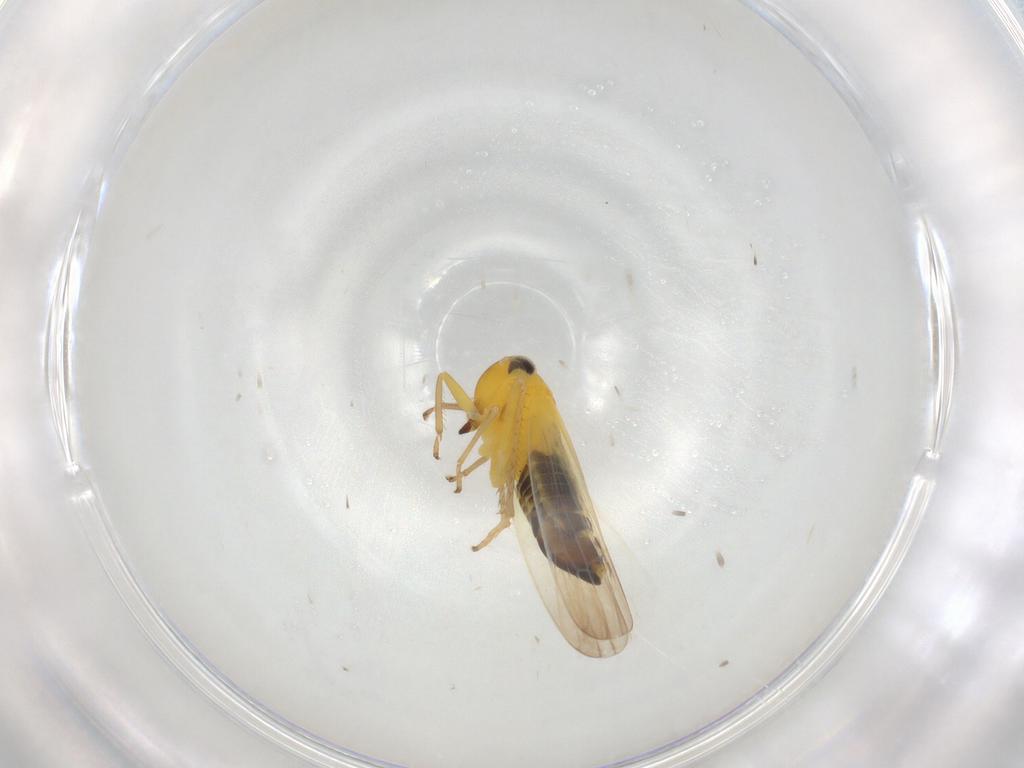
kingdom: Animalia
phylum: Arthropoda
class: Insecta
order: Hemiptera
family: Cicadellidae
